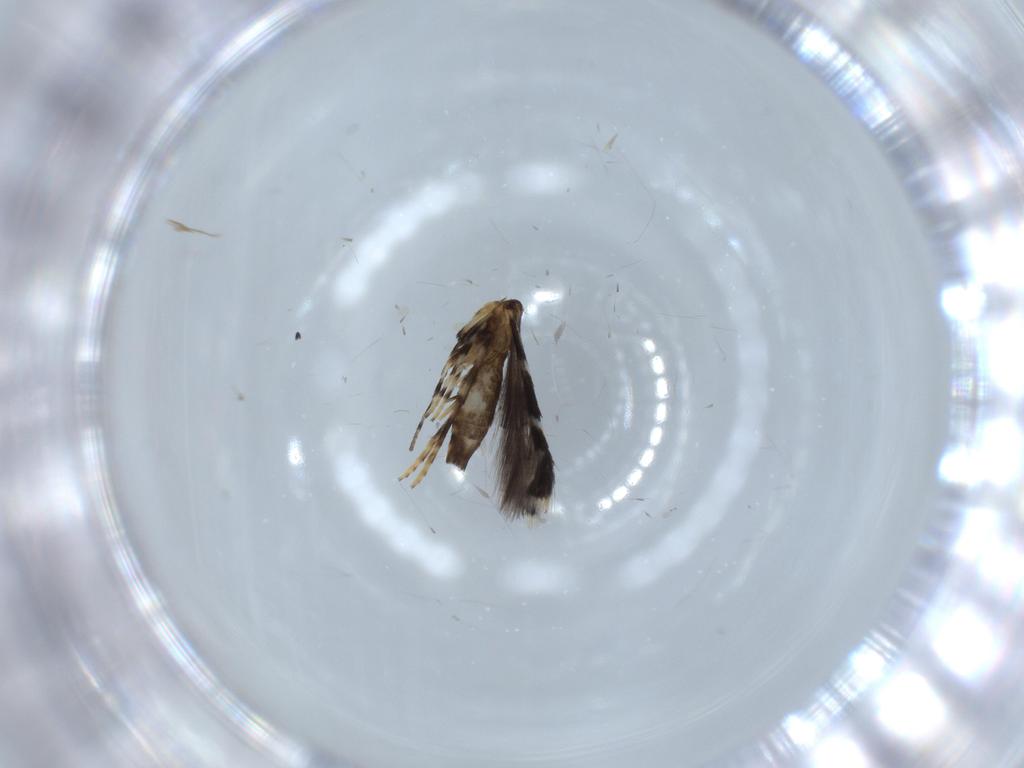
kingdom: Animalia
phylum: Arthropoda
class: Insecta
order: Lepidoptera
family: Gracillariidae
